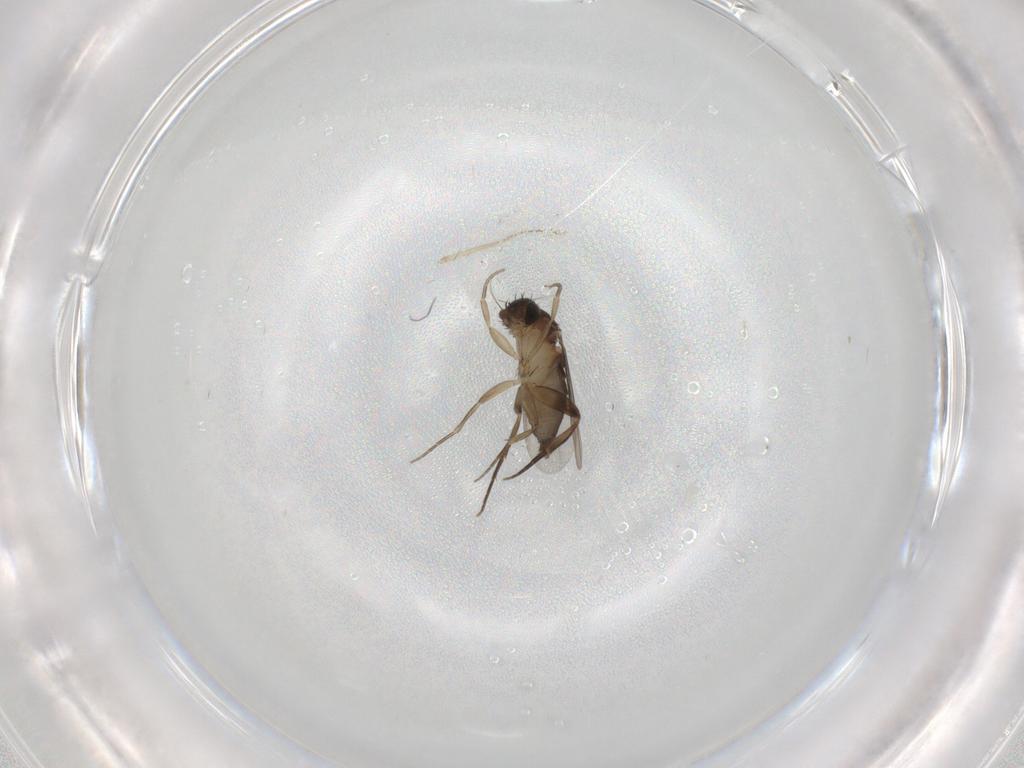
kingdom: Animalia
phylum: Arthropoda
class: Insecta
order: Diptera
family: Phoridae
